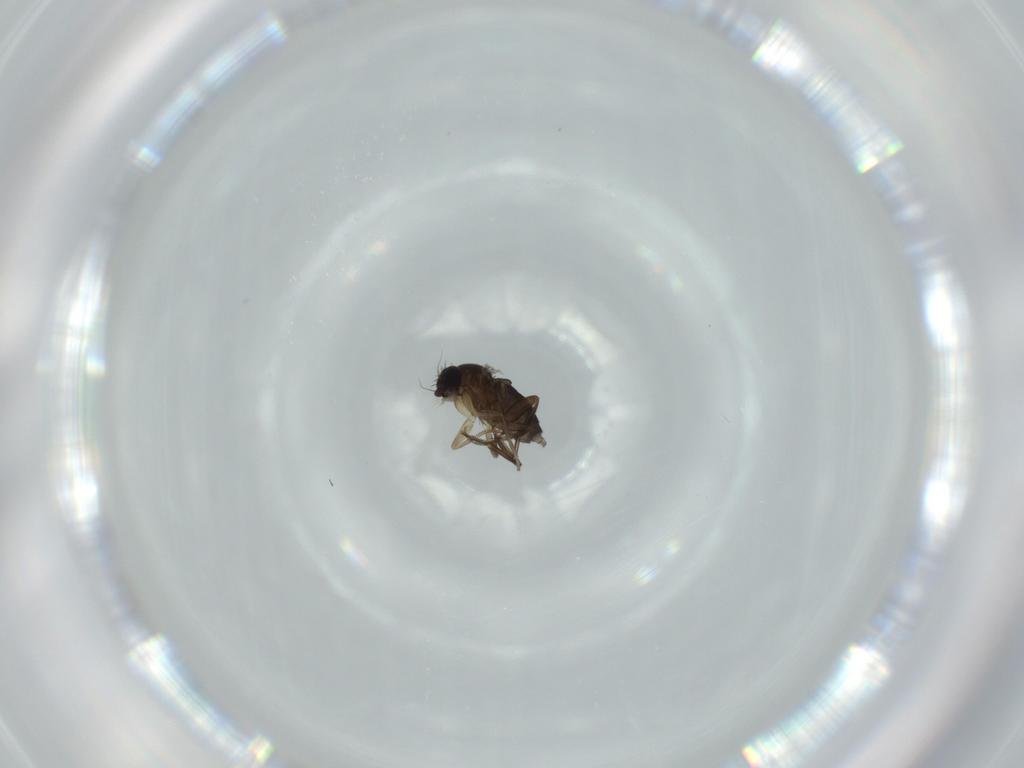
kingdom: Animalia
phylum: Arthropoda
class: Insecta
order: Diptera
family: Phoridae
